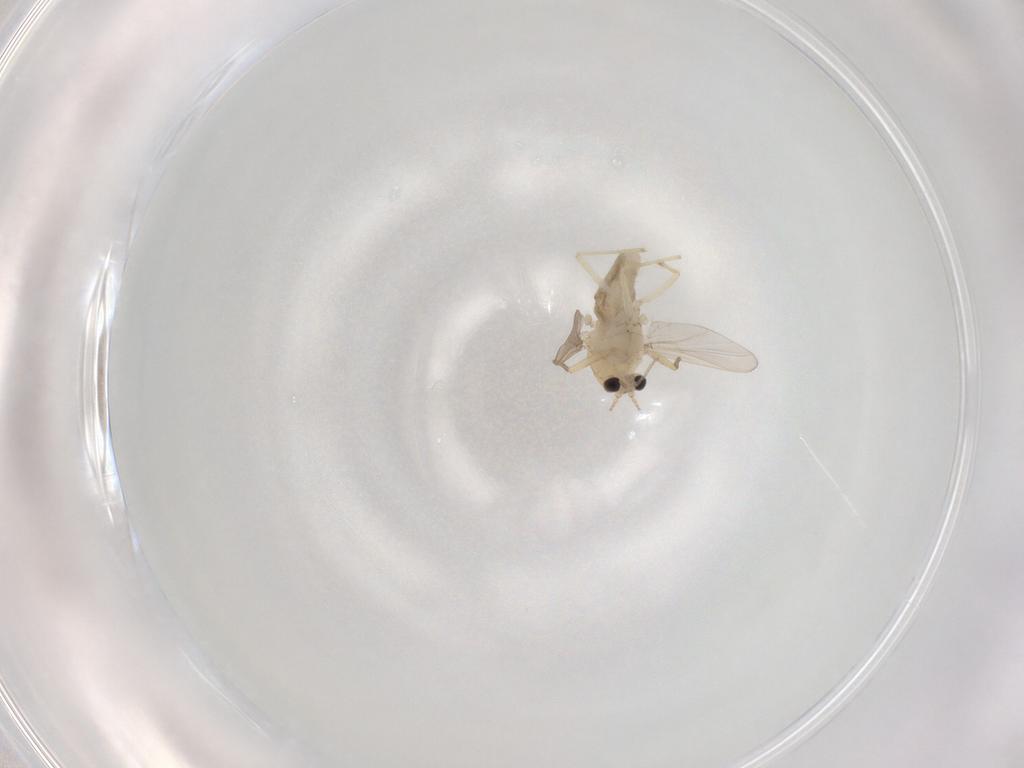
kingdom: Animalia
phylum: Arthropoda
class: Insecta
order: Diptera
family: Chironomidae
